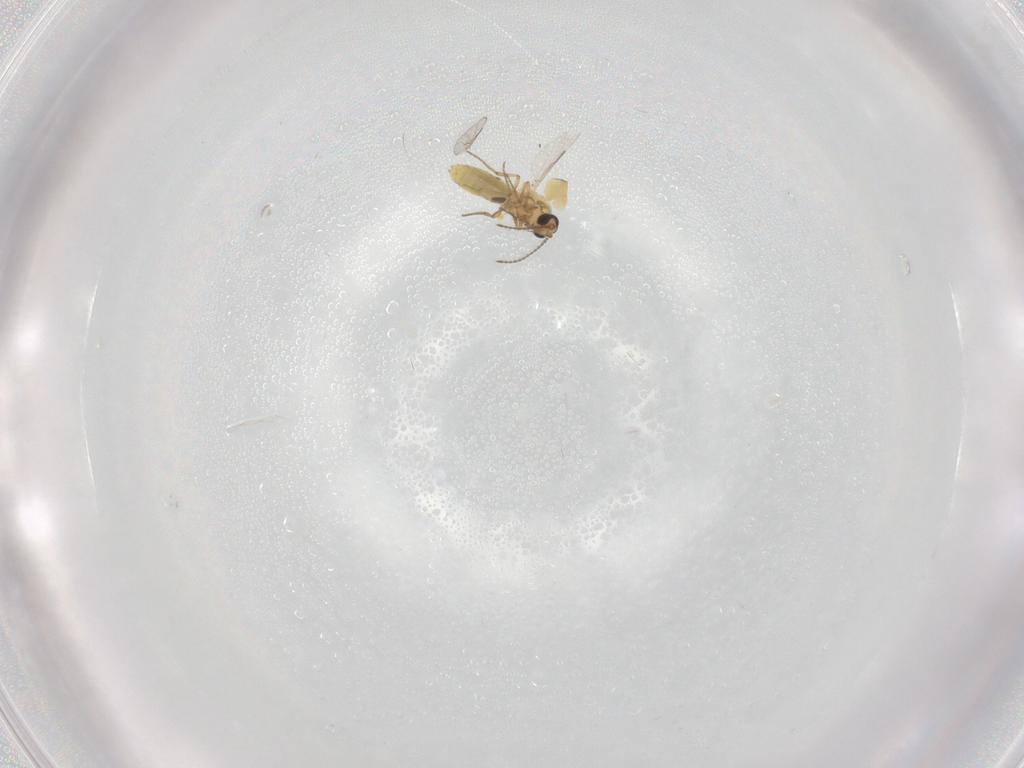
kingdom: Animalia
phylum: Arthropoda
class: Insecta
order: Diptera
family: Ceratopogonidae
